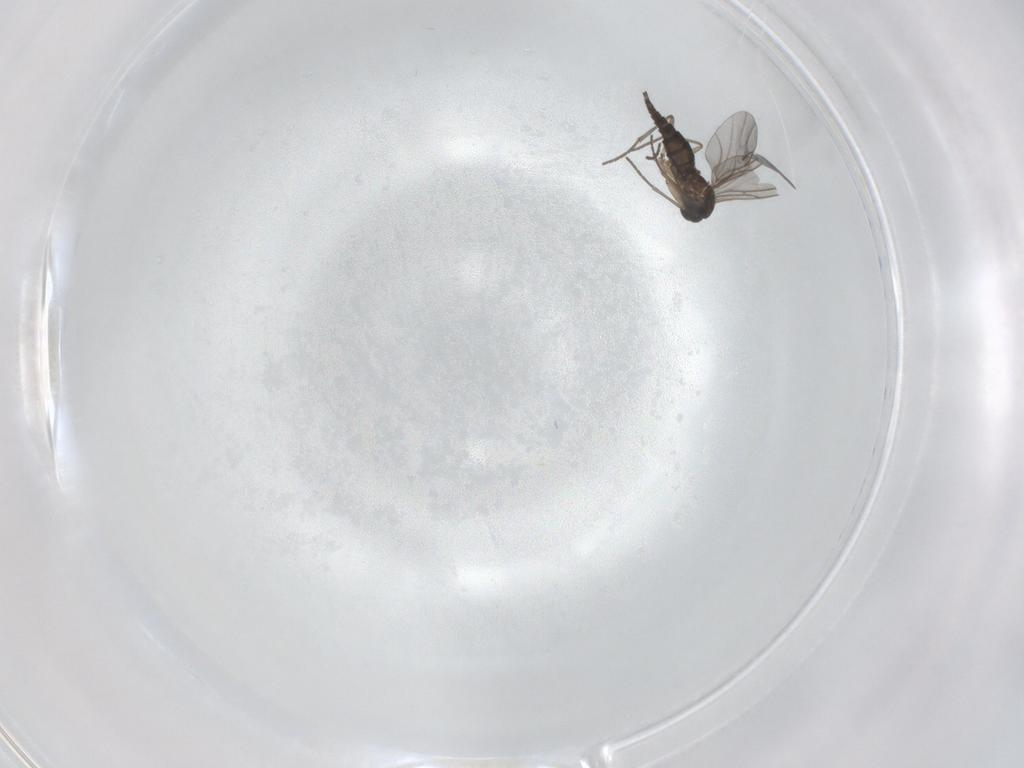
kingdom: Animalia
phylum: Arthropoda
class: Insecta
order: Diptera
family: Sciaridae
